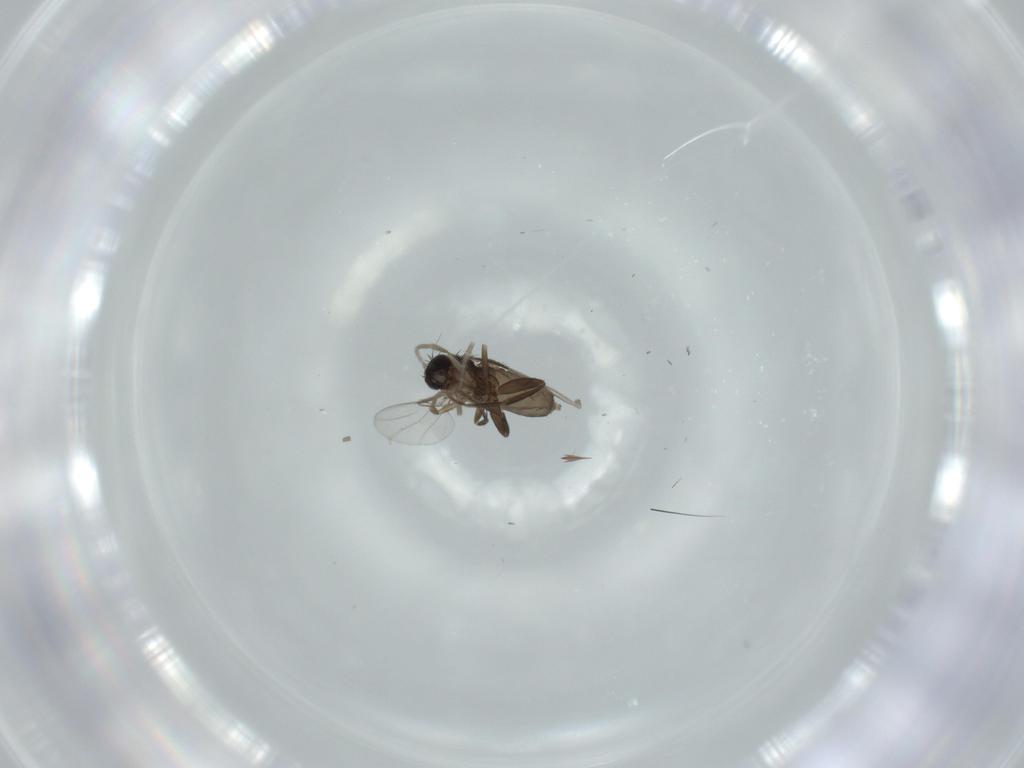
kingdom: Animalia
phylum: Arthropoda
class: Insecta
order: Diptera
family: Phoridae
